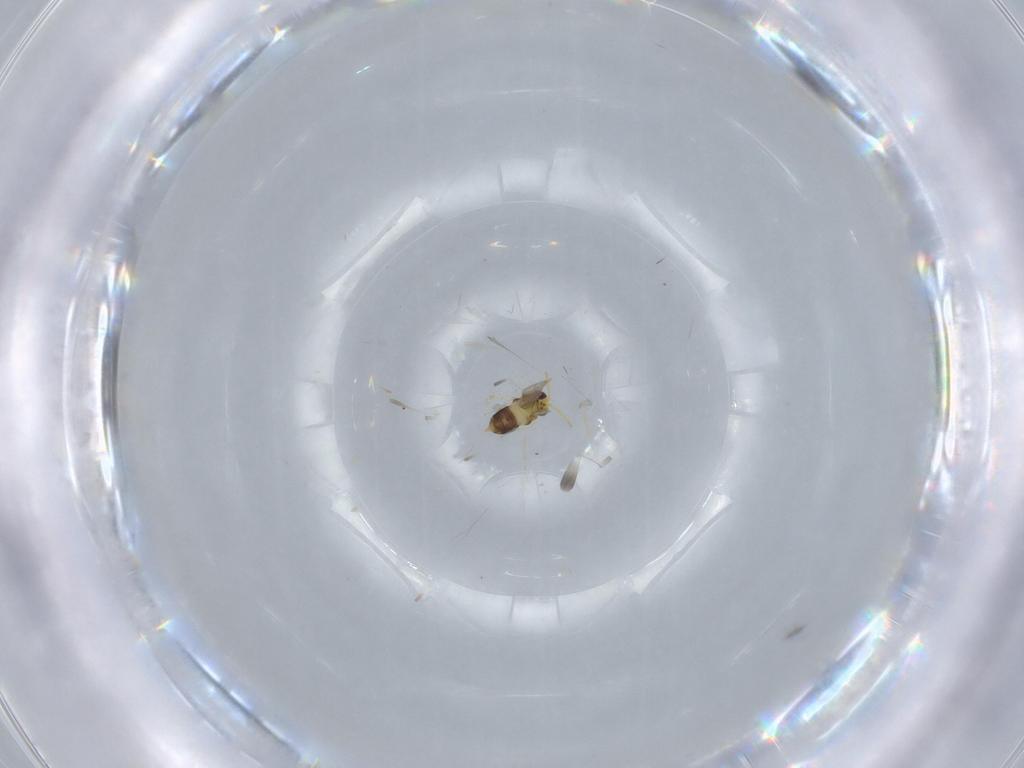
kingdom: Animalia
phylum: Arthropoda
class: Insecta
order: Hymenoptera
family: Aphelinidae
